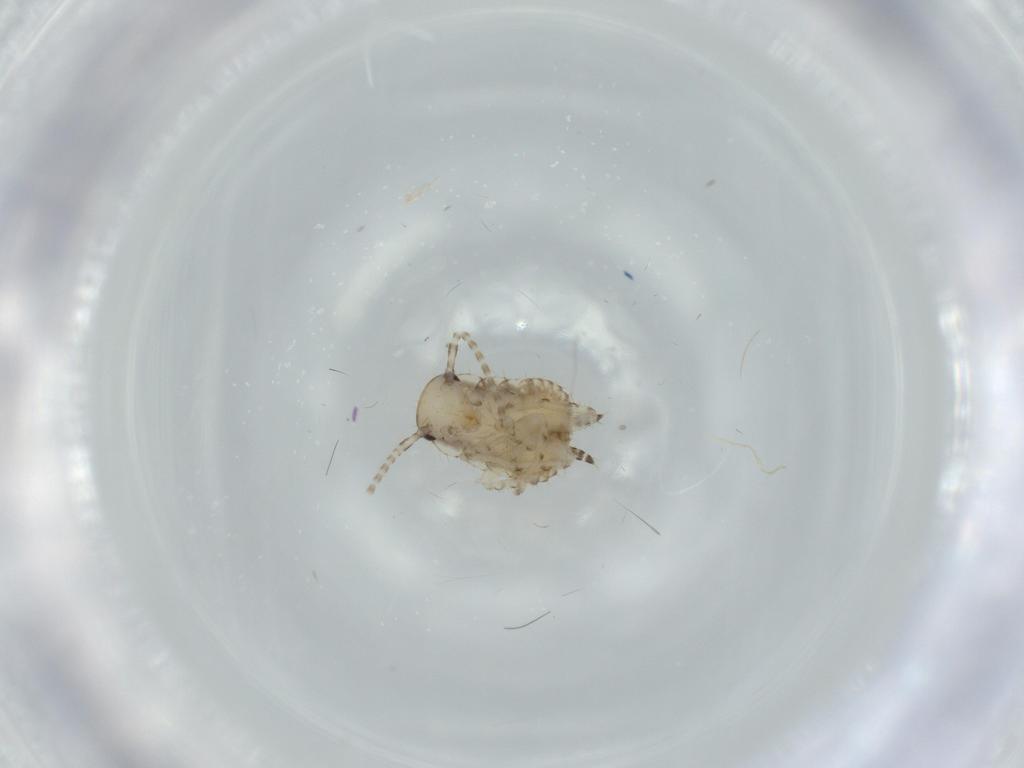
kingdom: Animalia
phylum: Arthropoda
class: Insecta
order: Blattodea
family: Ectobiidae
